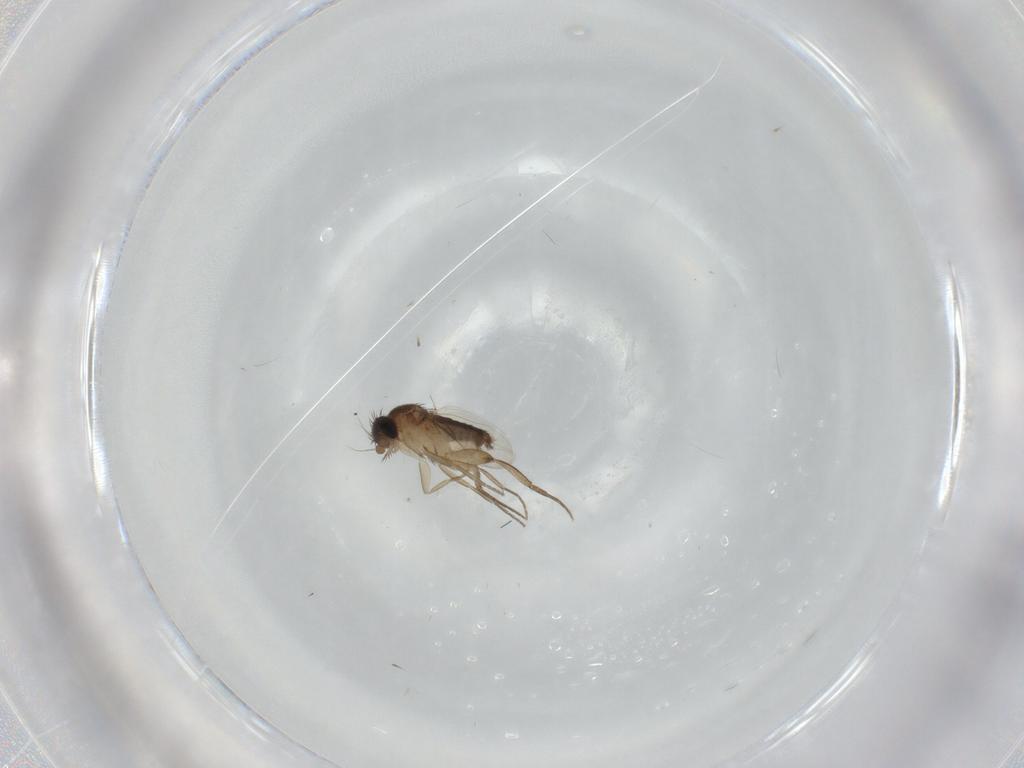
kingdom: Animalia
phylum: Arthropoda
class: Insecta
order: Diptera
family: Phoridae
